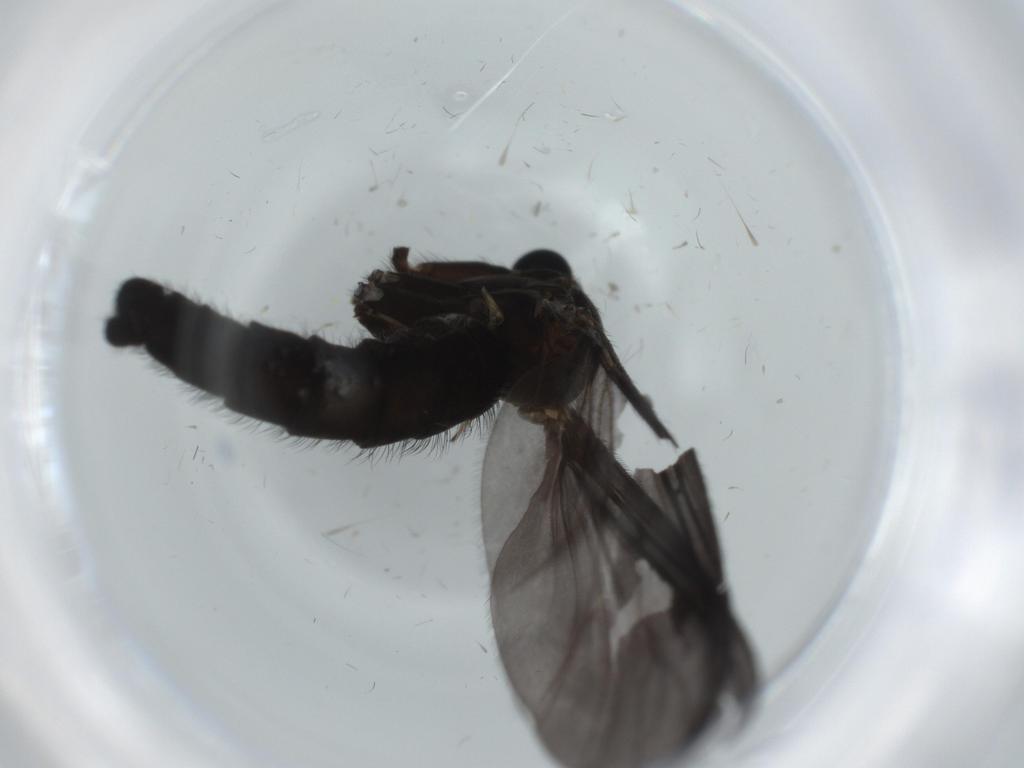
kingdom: Animalia
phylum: Arthropoda
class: Insecta
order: Diptera
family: Sciaridae
